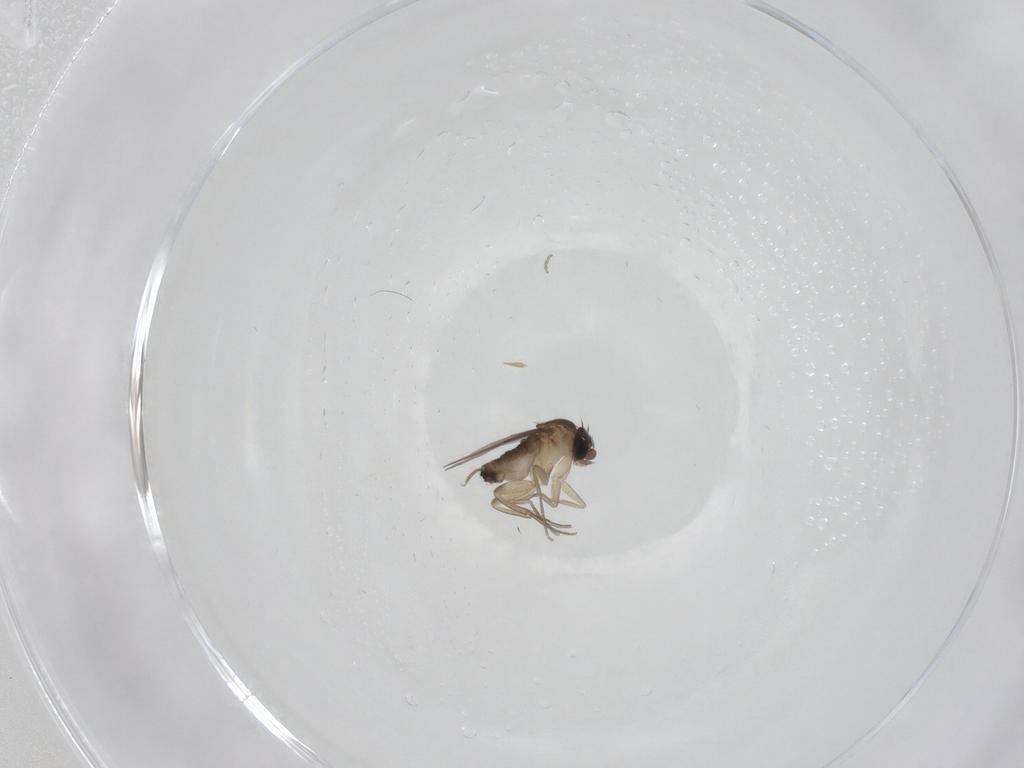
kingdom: Animalia
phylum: Arthropoda
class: Insecta
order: Diptera
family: Phoridae
